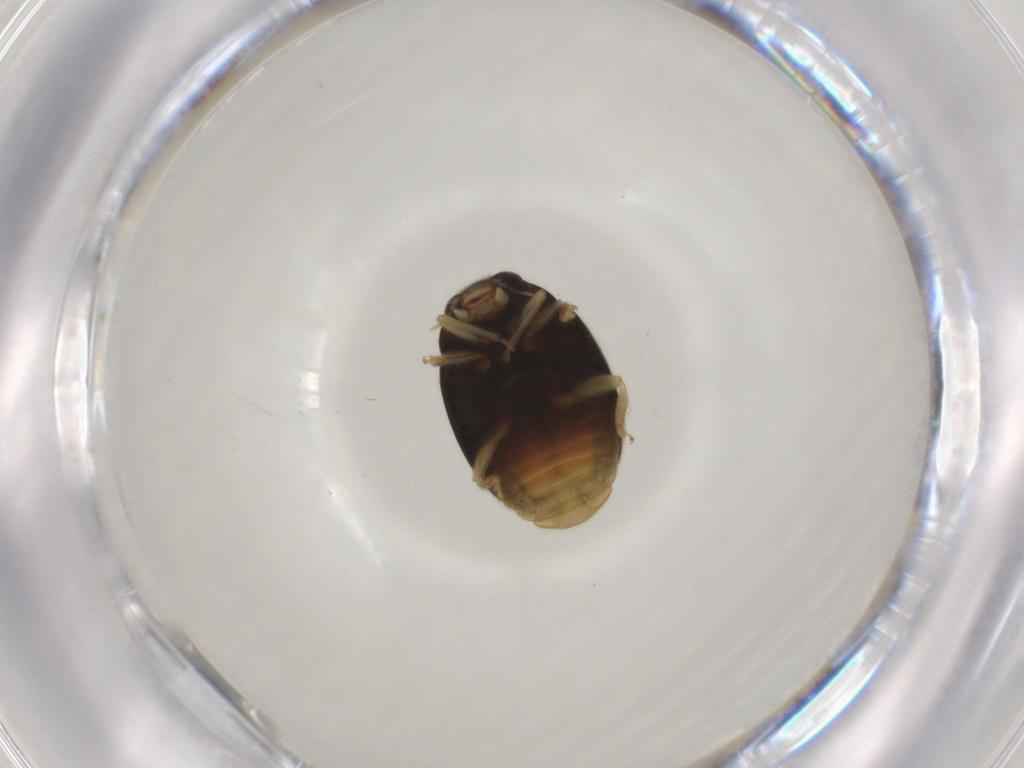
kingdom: Animalia
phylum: Arthropoda
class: Insecta
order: Coleoptera
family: Coccinellidae
